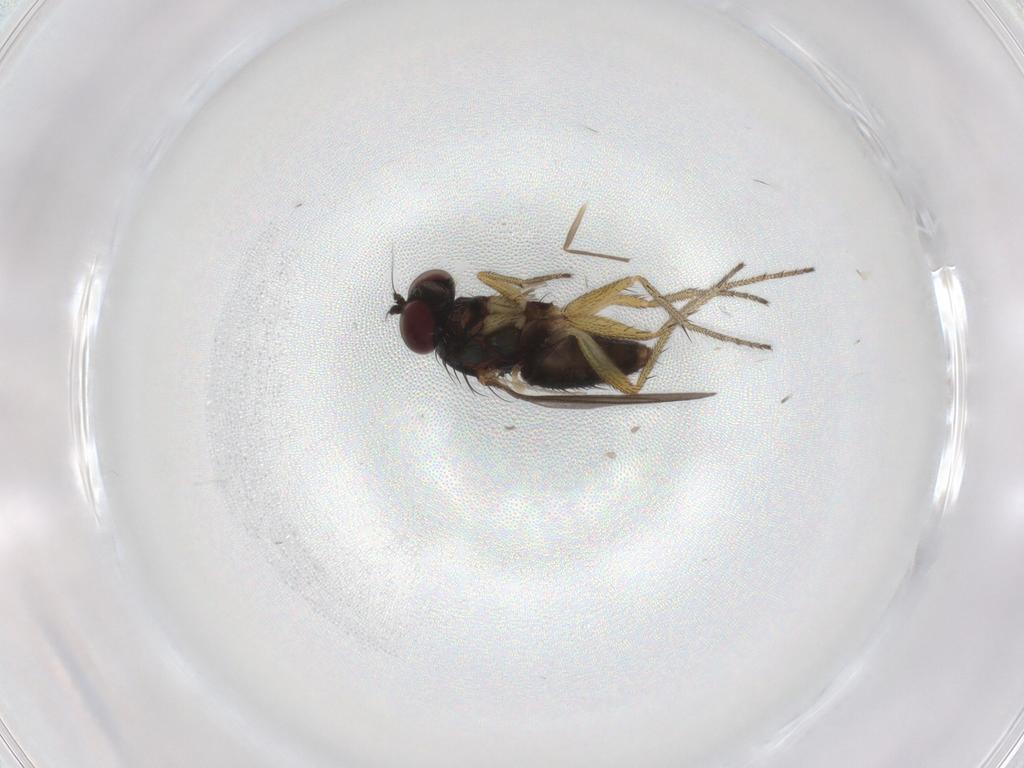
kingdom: Animalia
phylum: Arthropoda
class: Insecta
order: Diptera
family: Chironomidae
